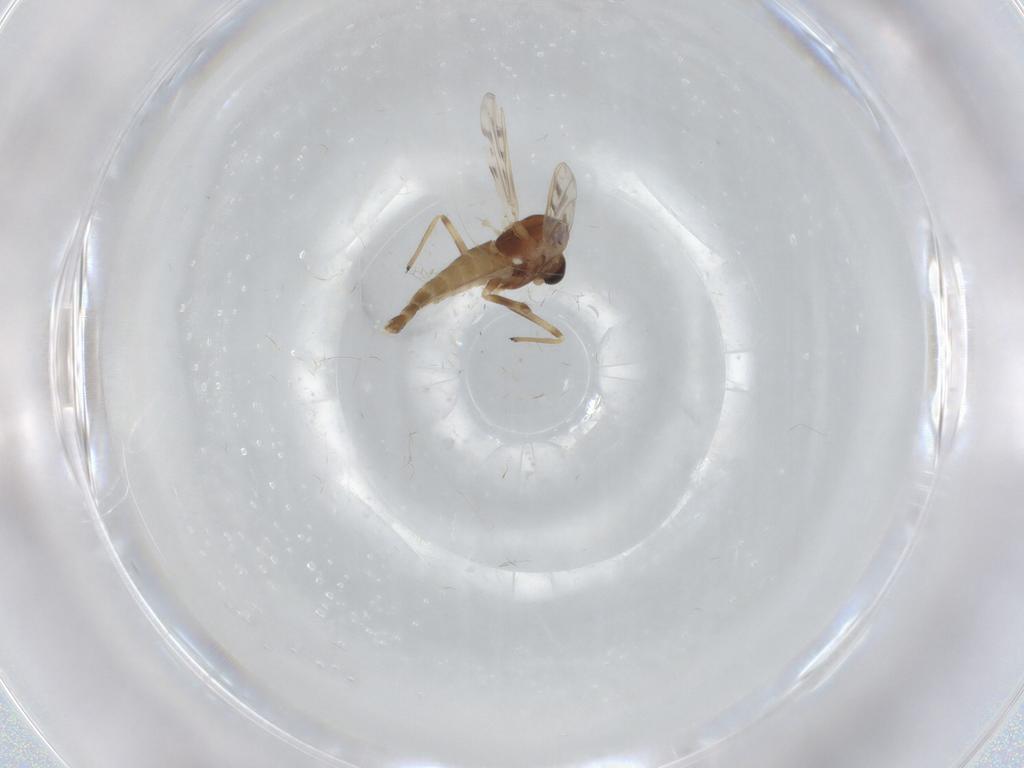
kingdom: Animalia
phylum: Arthropoda
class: Insecta
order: Diptera
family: Chironomidae
